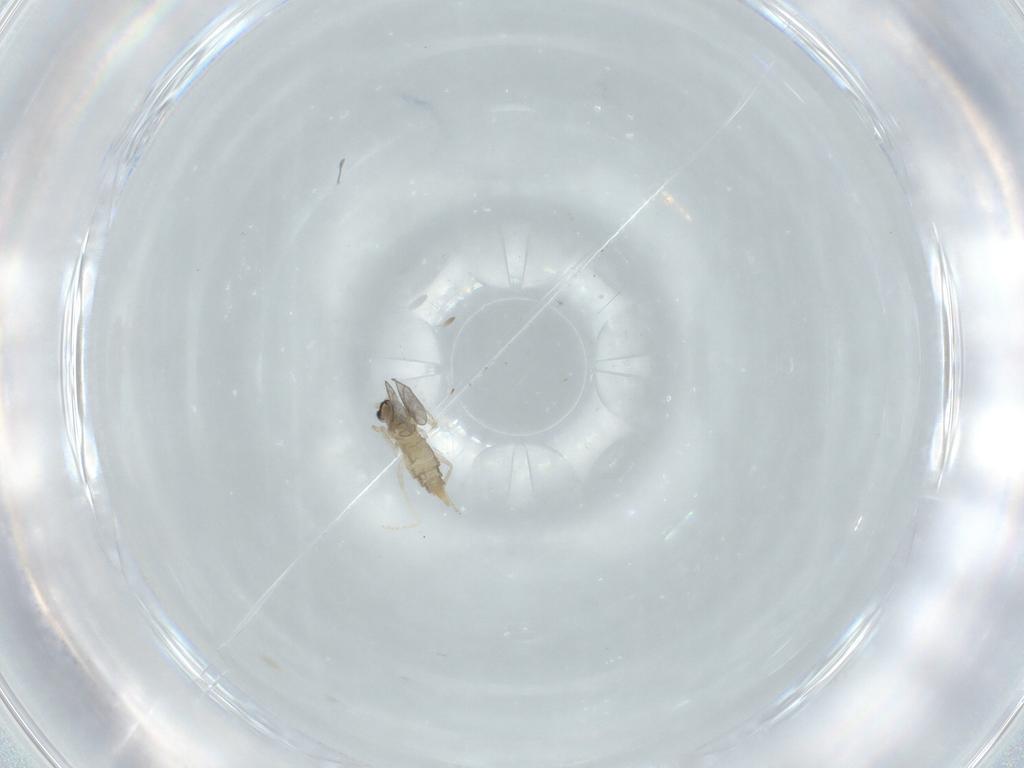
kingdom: Animalia
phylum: Arthropoda
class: Insecta
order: Diptera
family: Cecidomyiidae
